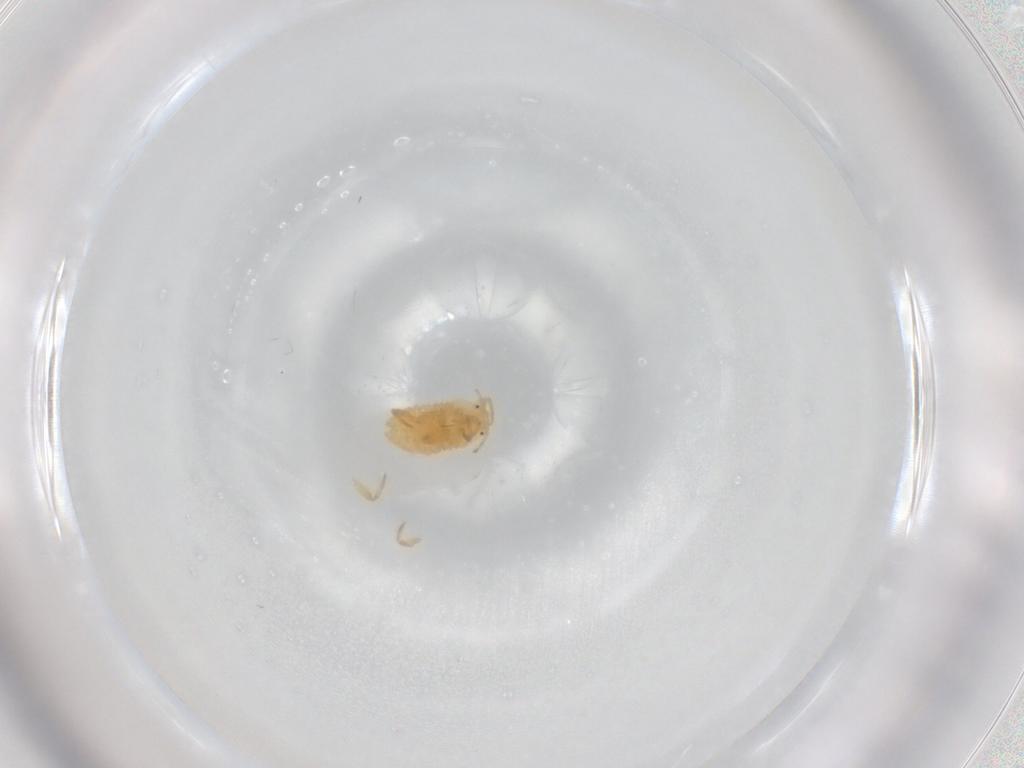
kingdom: Animalia
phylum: Arthropoda
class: Insecta
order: Hemiptera
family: Pseudococcidae
